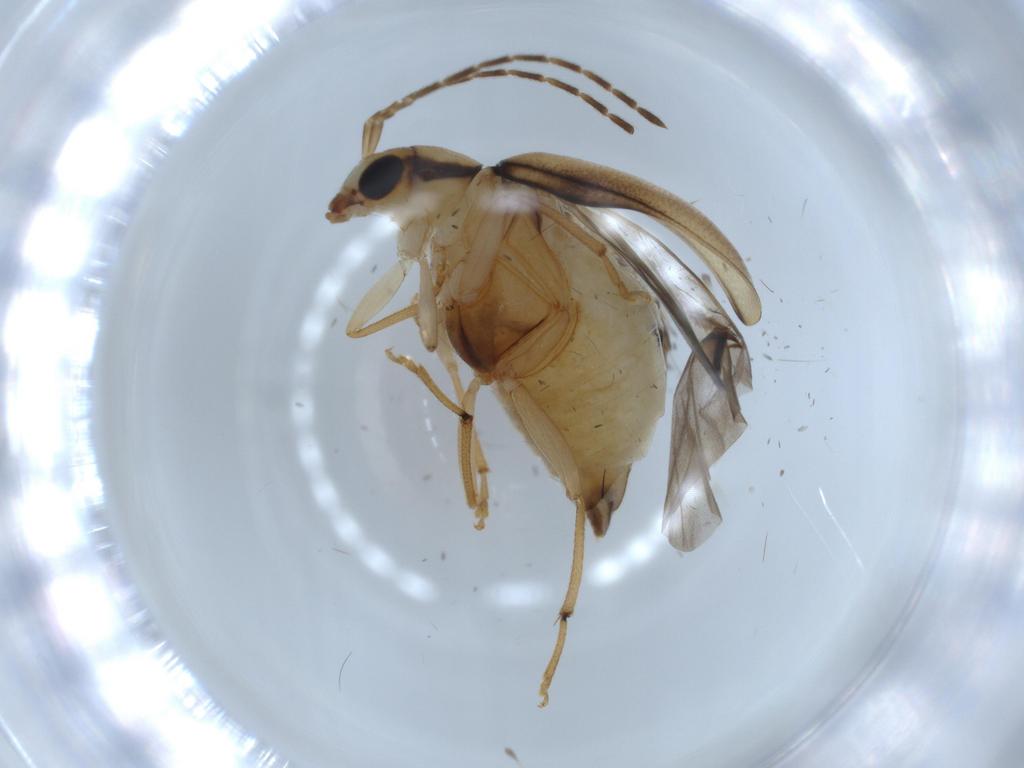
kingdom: Animalia
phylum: Arthropoda
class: Insecta
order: Coleoptera
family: Chrysomelidae
